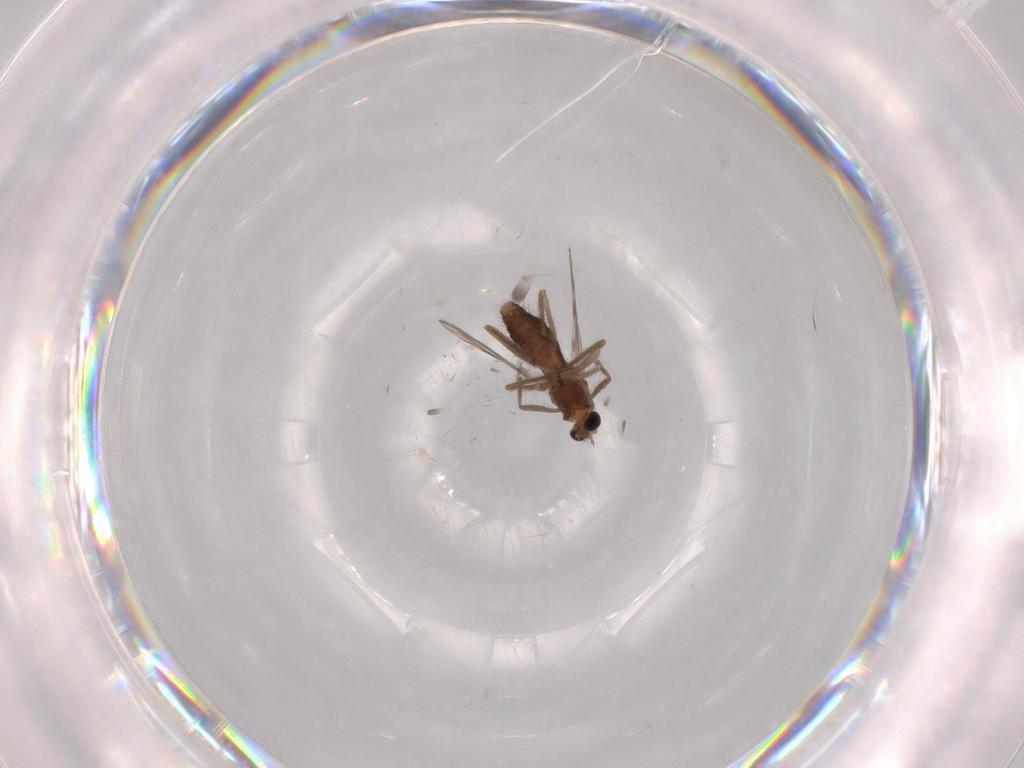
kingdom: Animalia
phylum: Arthropoda
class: Insecta
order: Diptera
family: Chironomidae
